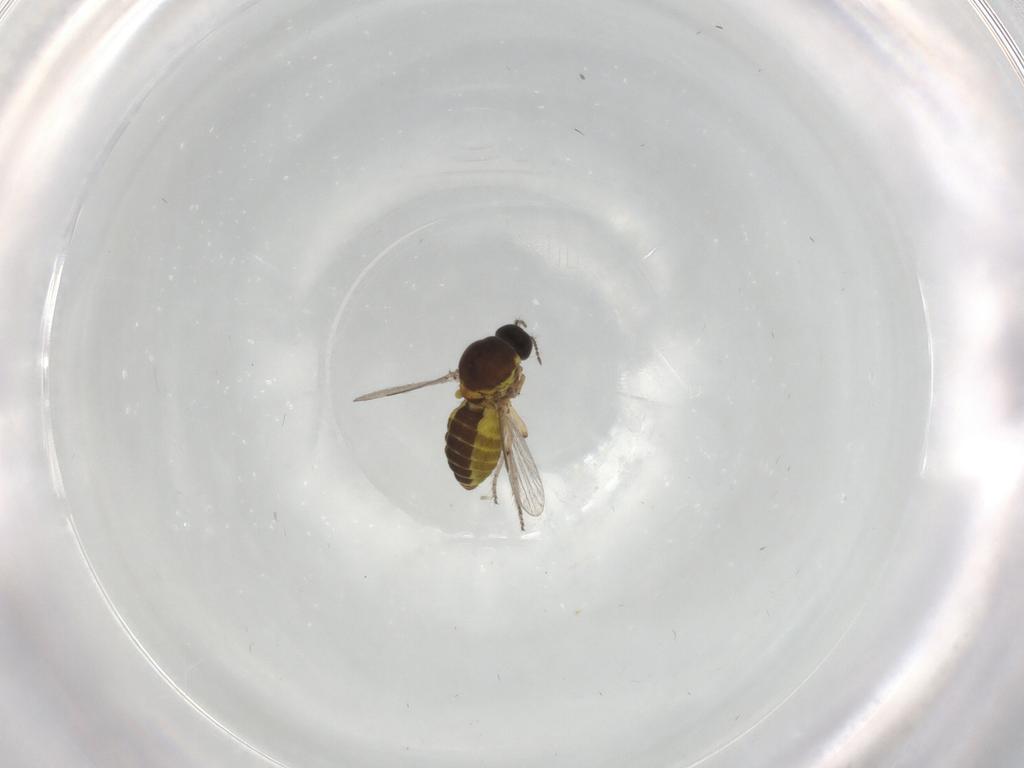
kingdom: Animalia
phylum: Arthropoda
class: Insecta
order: Diptera
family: Ceratopogonidae
